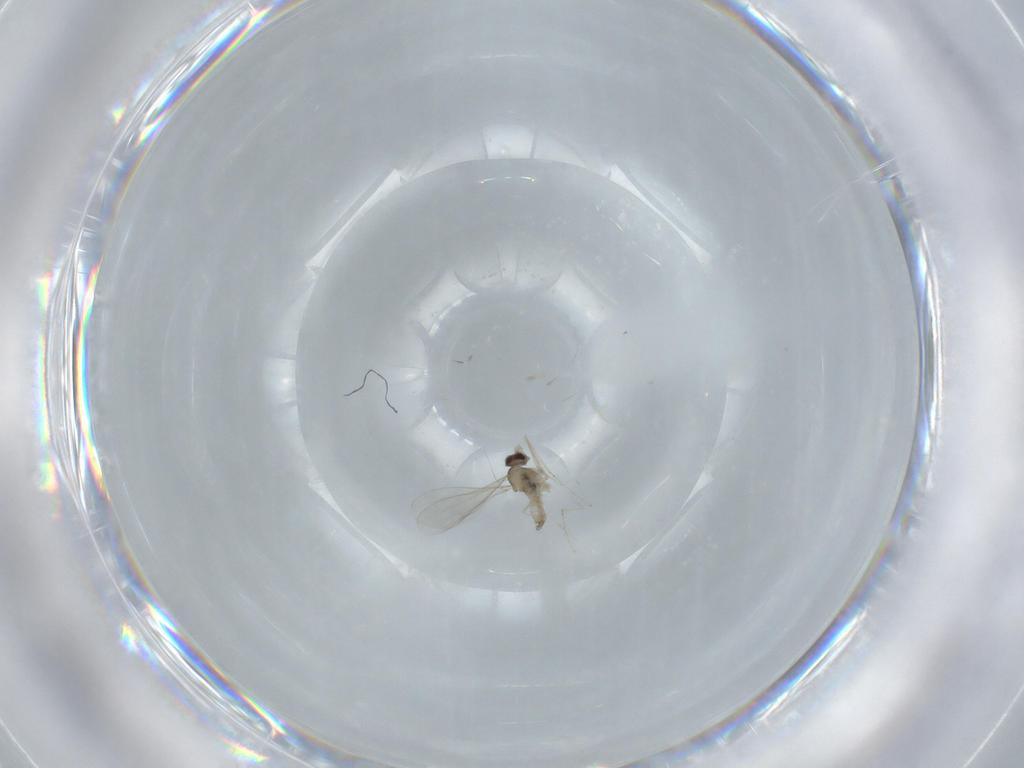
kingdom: Animalia
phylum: Arthropoda
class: Insecta
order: Diptera
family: Cecidomyiidae
